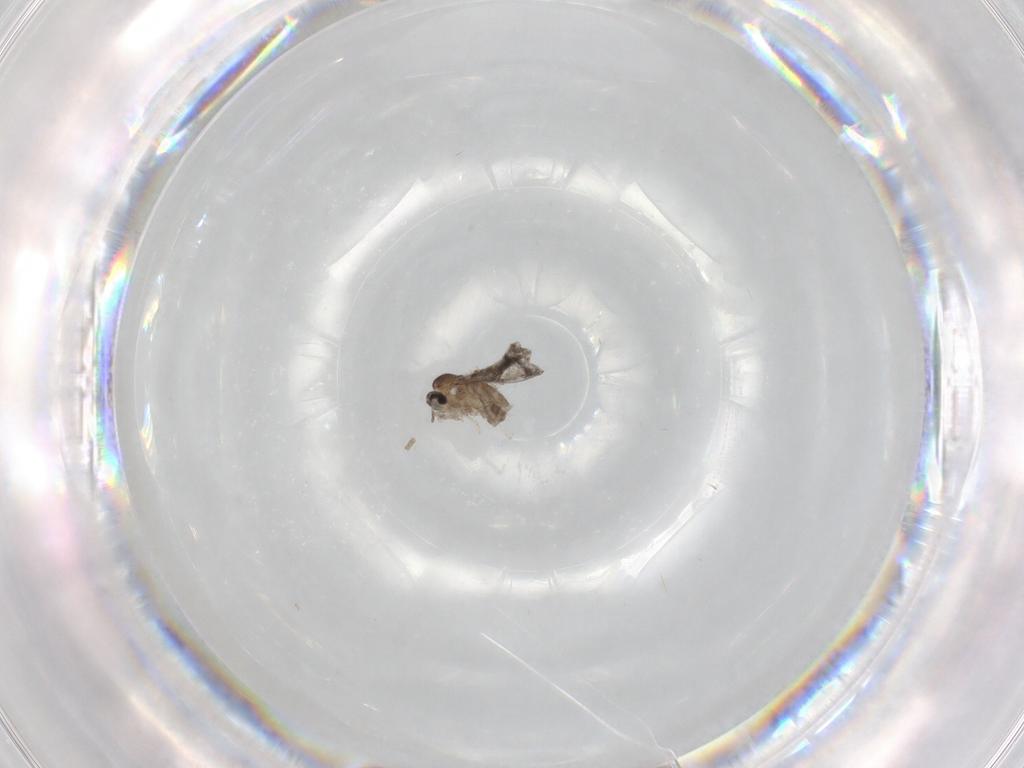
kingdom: Animalia
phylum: Arthropoda
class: Insecta
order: Diptera
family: Cecidomyiidae
